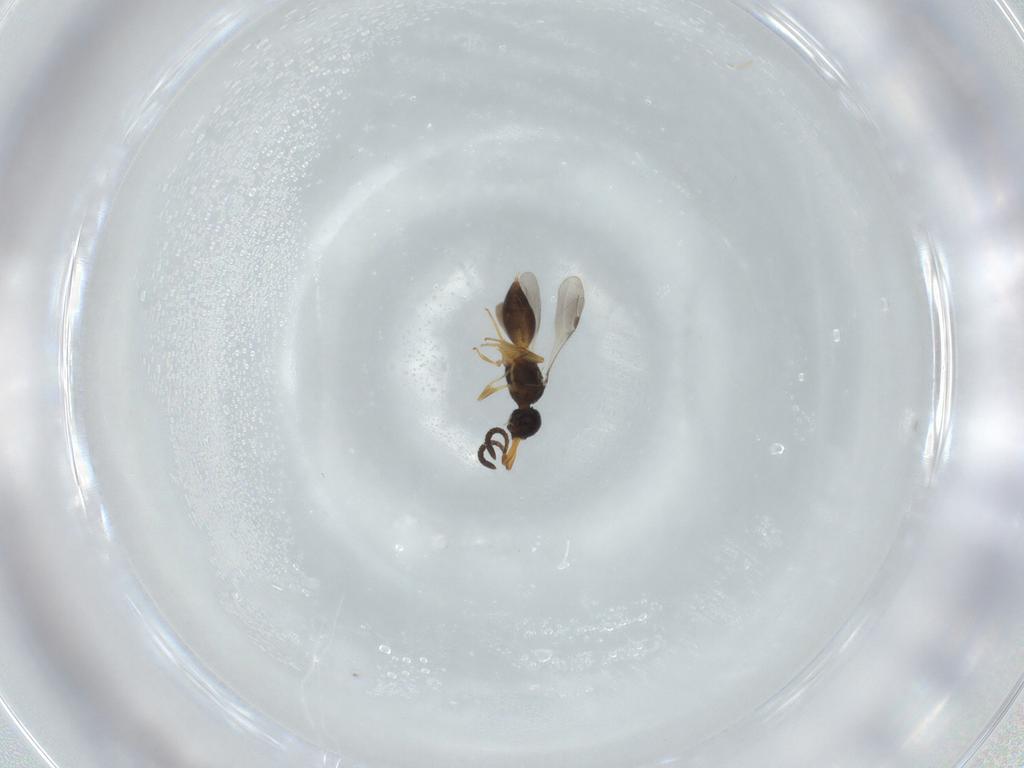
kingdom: Animalia
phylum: Arthropoda
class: Insecta
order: Hymenoptera
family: Megaspilidae
